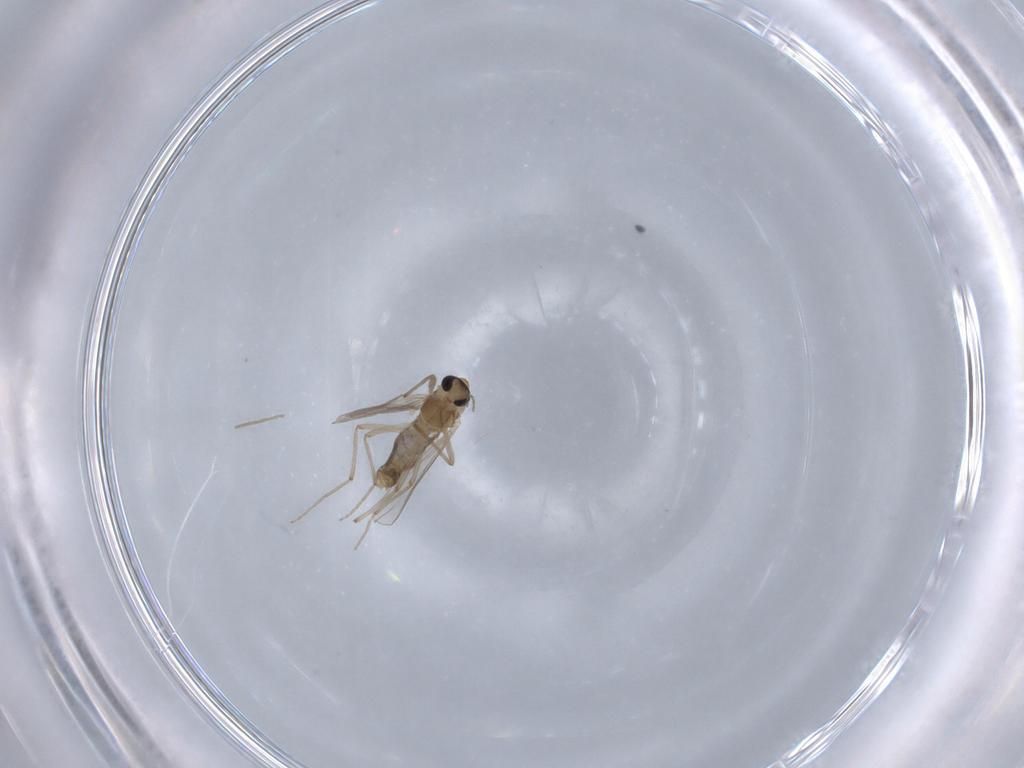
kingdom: Animalia
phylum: Arthropoda
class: Insecta
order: Diptera
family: Chironomidae
